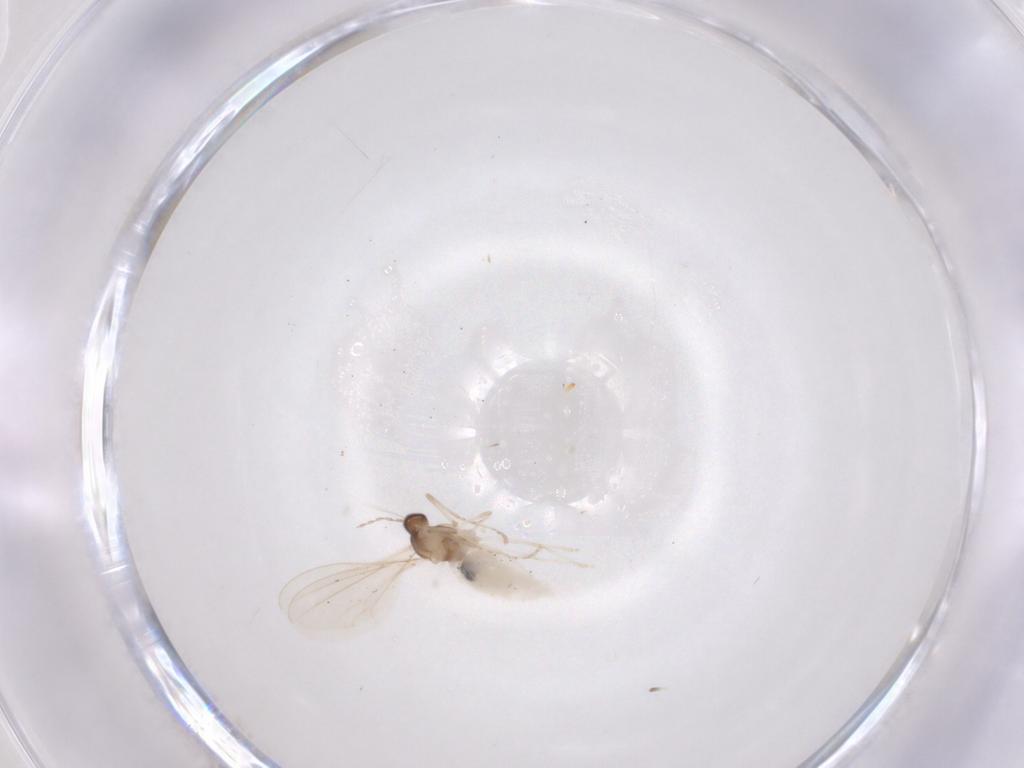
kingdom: Animalia
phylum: Arthropoda
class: Insecta
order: Diptera
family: Cecidomyiidae
